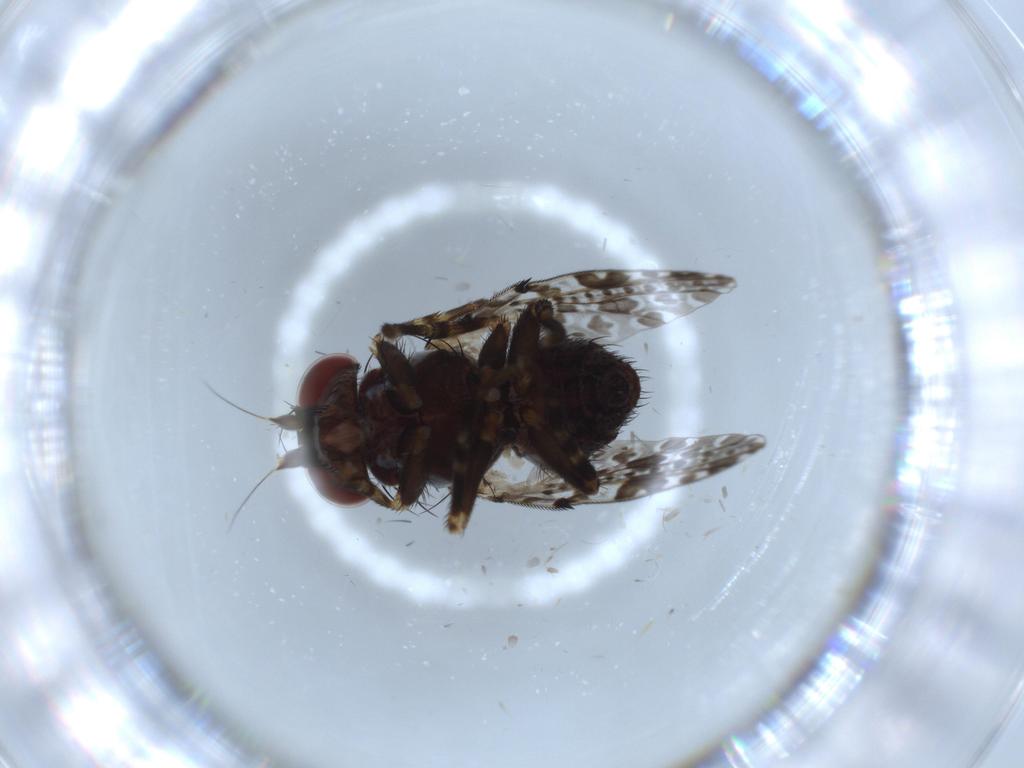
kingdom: Animalia
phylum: Arthropoda
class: Insecta
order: Diptera
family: Odiniidae
